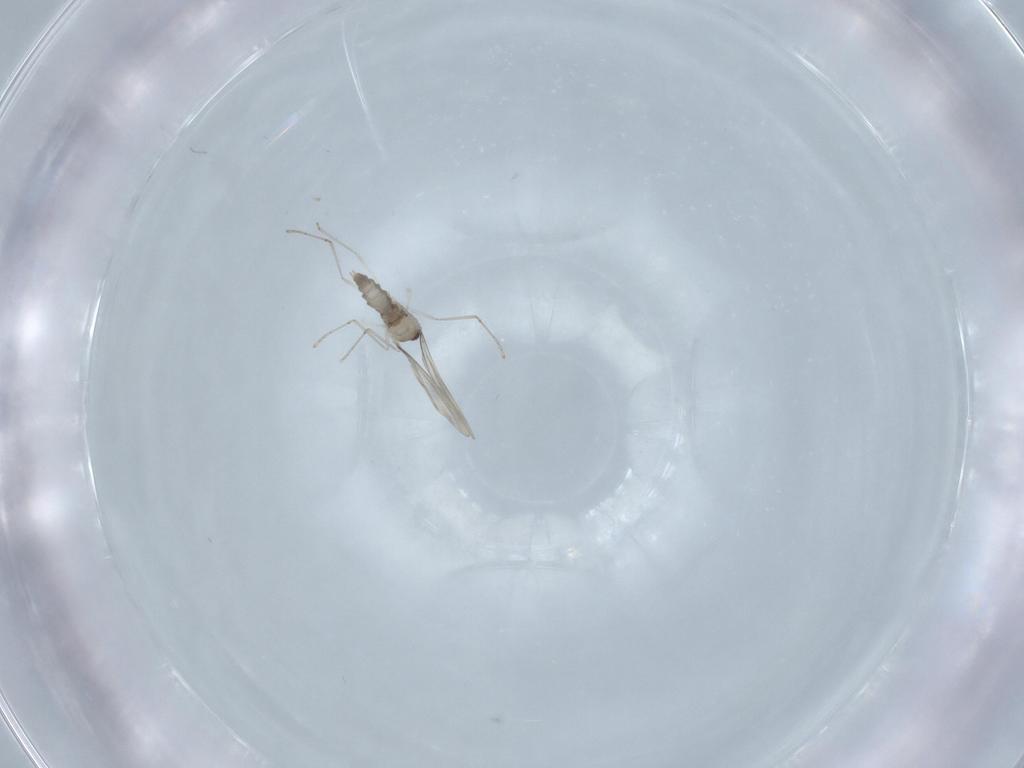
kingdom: Animalia
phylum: Arthropoda
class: Insecta
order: Diptera
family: Cecidomyiidae
